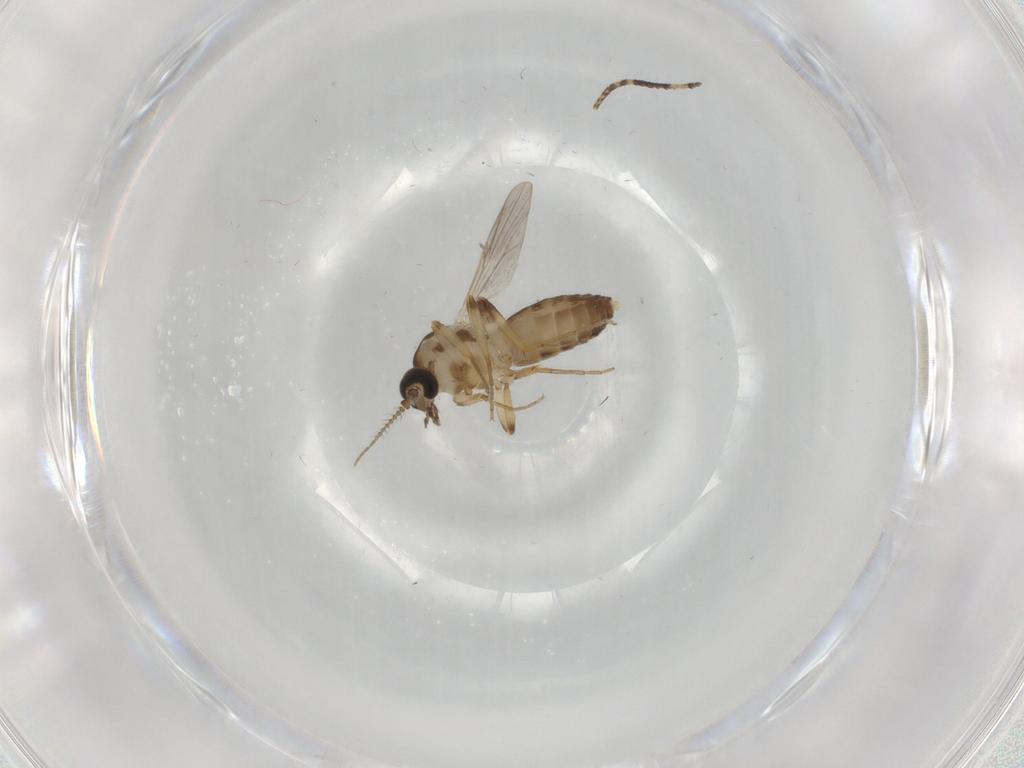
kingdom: Animalia
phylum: Arthropoda
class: Insecta
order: Diptera
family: Ceratopogonidae
